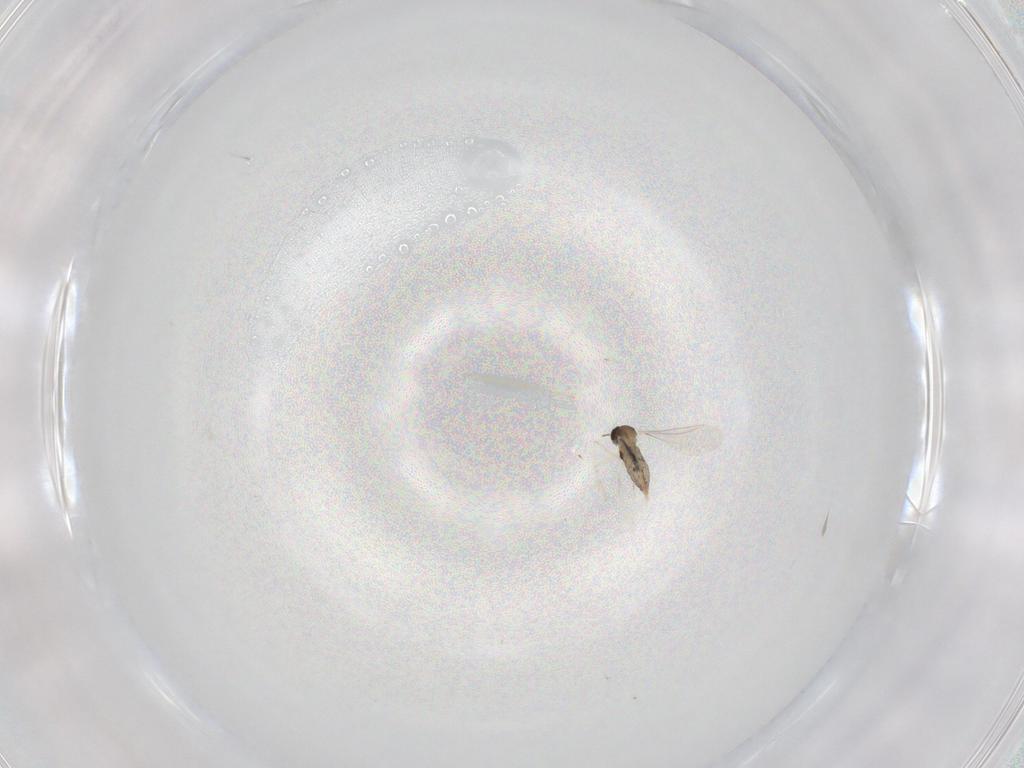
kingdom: Animalia
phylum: Arthropoda
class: Insecta
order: Diptera
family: Cecidomyiidae
